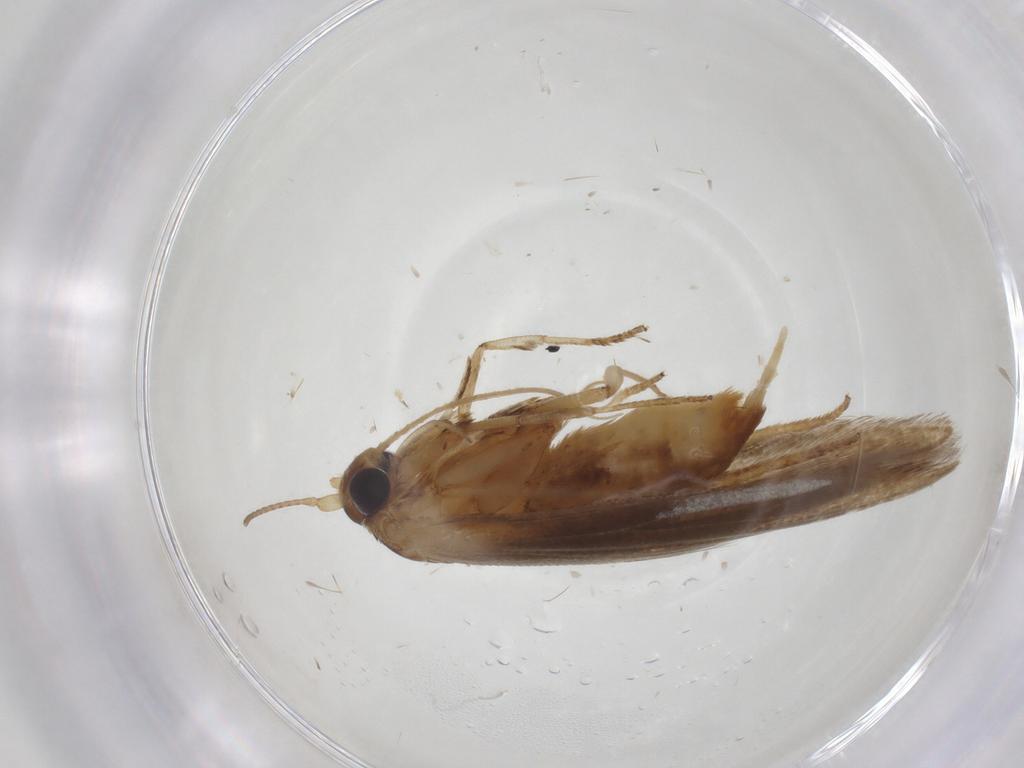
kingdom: Animalia
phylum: Arthropoda
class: Insecta
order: Lepidoptera
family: Blastobasidae
